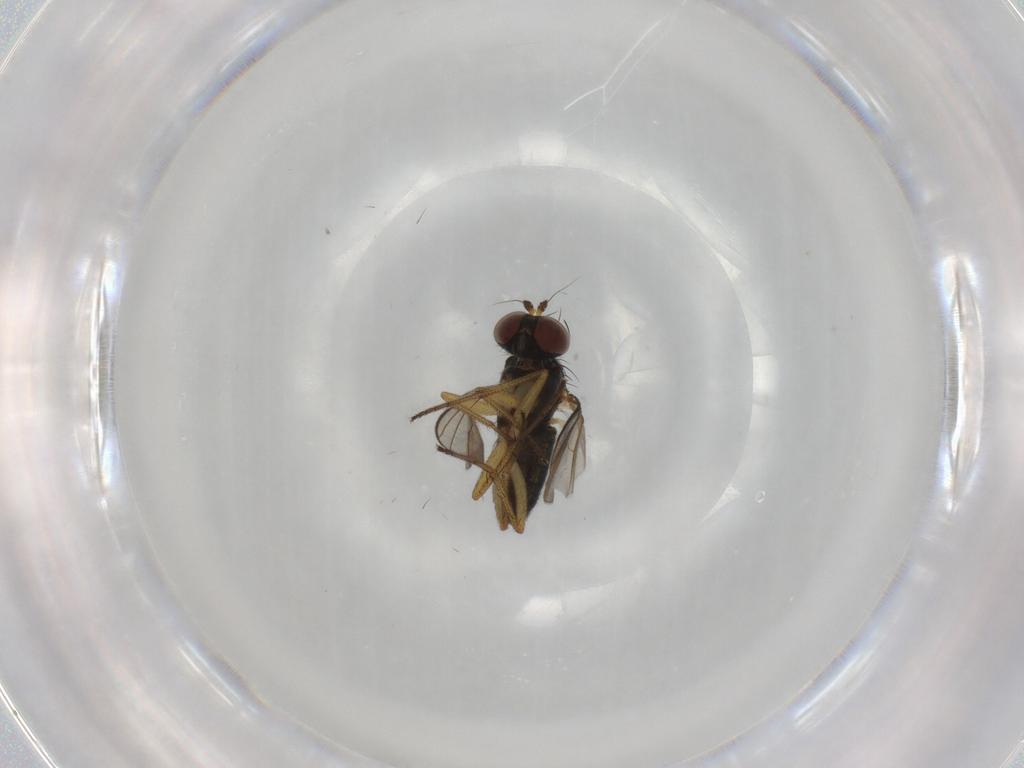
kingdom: Animalia
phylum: Arthropoda
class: Insecta
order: Diptera
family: Dolichopodidae
